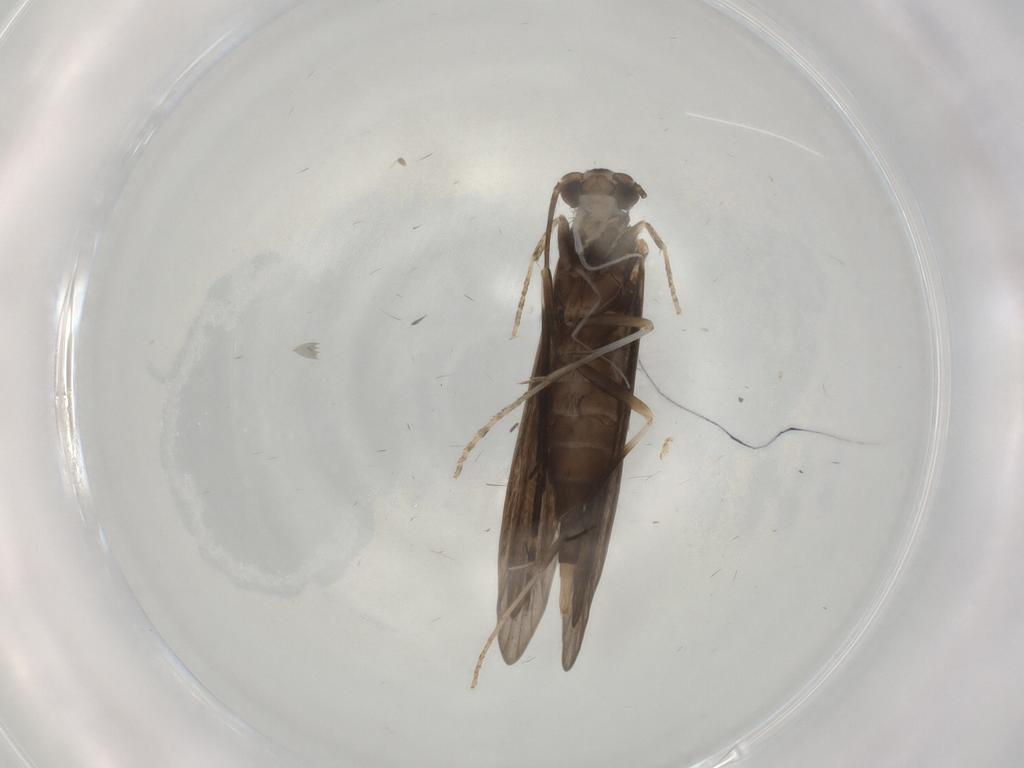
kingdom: Animalia
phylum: Arthropoda
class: Insecta
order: Trichoptera
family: Xiphocentronidae
